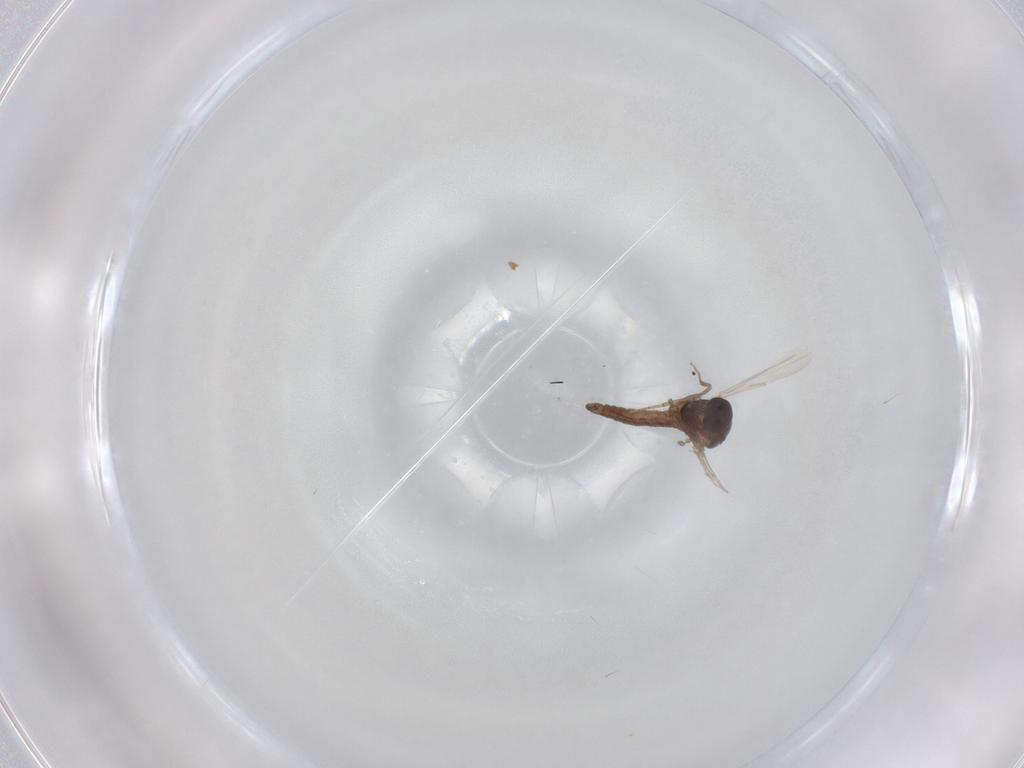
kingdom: Animalia
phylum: Arthropoda
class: Insecta
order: Diptera
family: Ceratopogonidae
